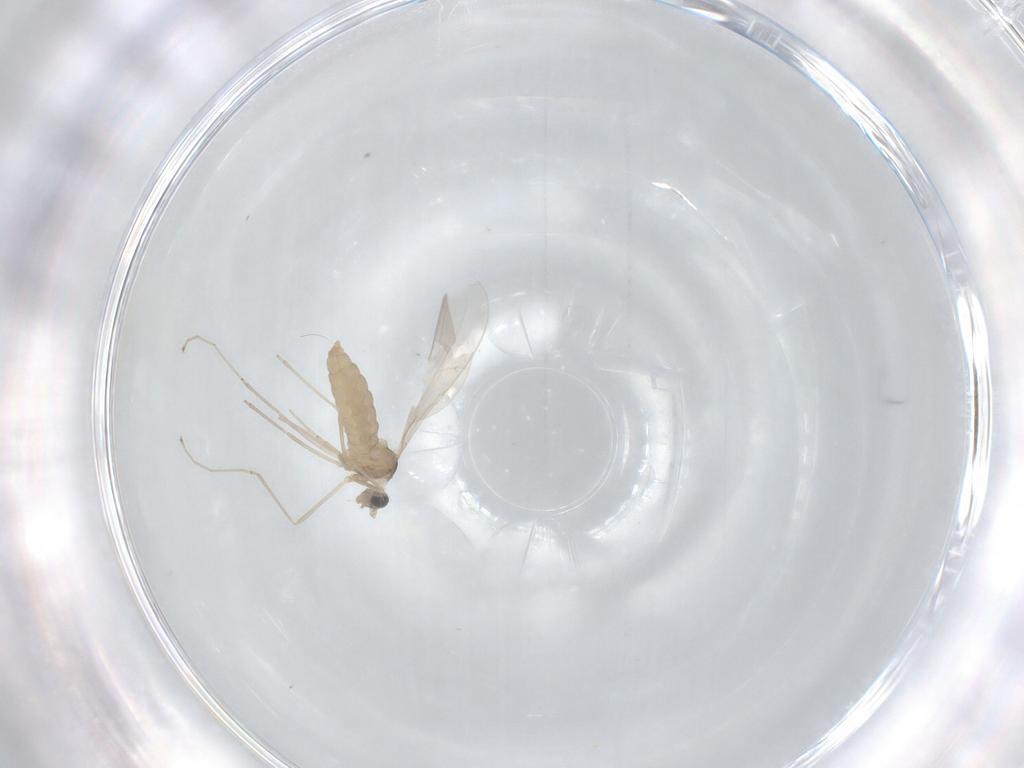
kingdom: Animalia
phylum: Arthropoda
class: Insecta
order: Diptera
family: Cecidomyiidae
